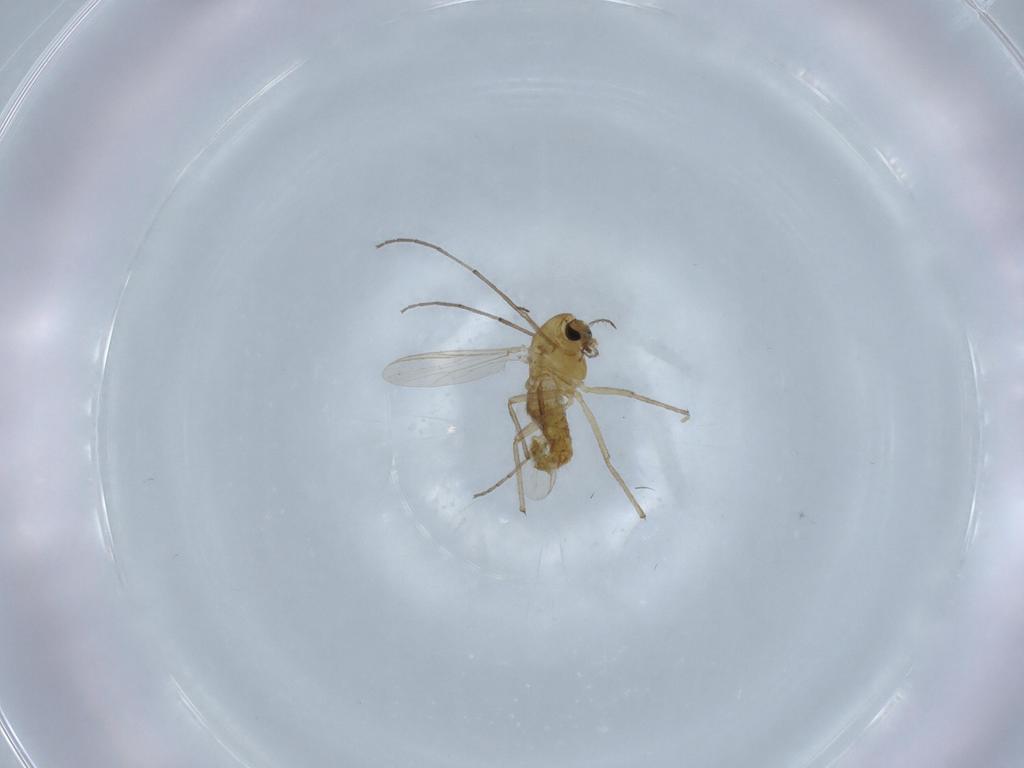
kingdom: Animalia
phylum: Arthropoda
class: Insecta
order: Diptera
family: Chironomidae
